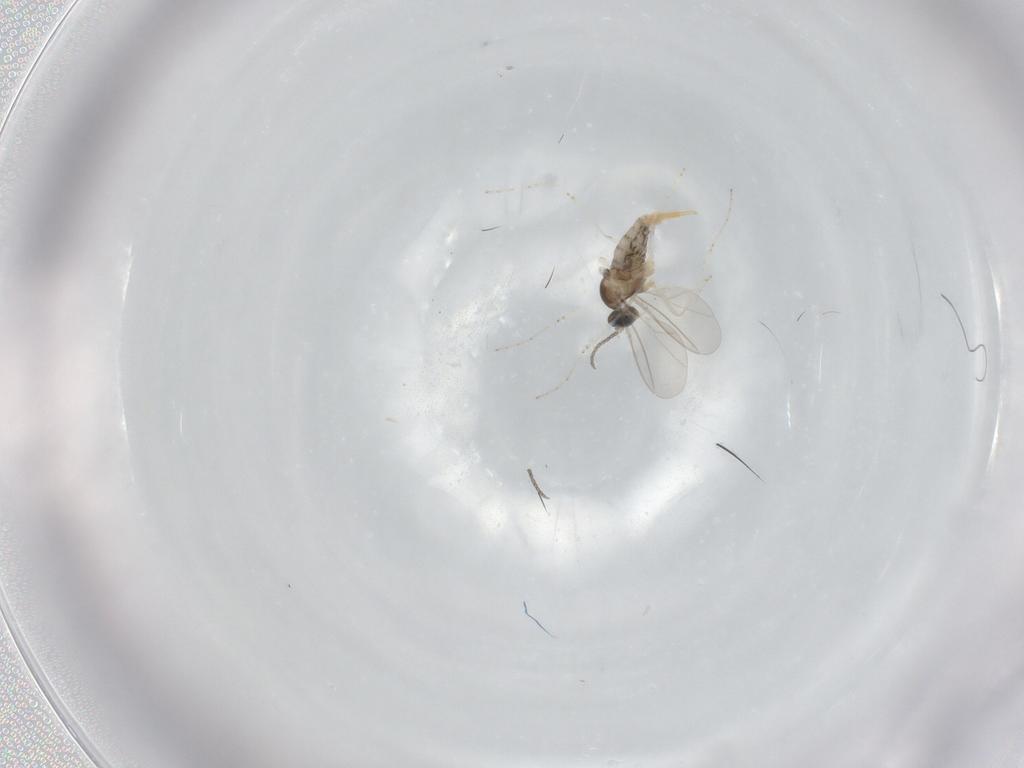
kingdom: Animalia
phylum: Arthropoda
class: Insecta
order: Diptera
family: Cecidomyiidae
